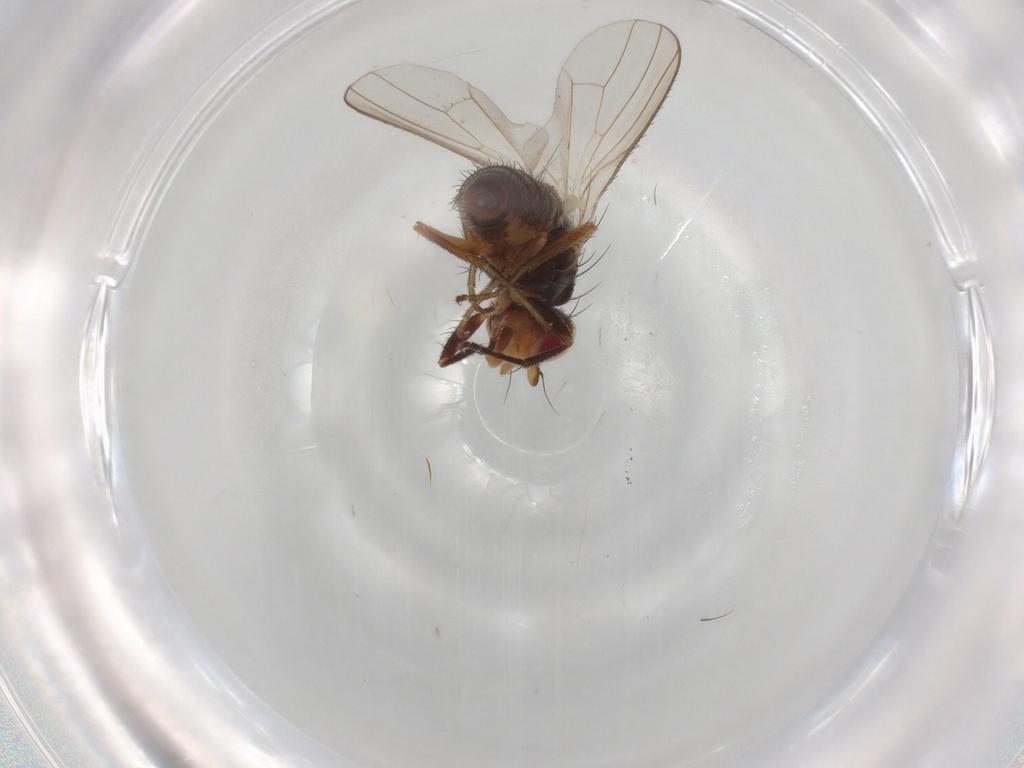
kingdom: Animalia
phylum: Arthropoda
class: Insecta
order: Diptera
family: Heleomyzidae
